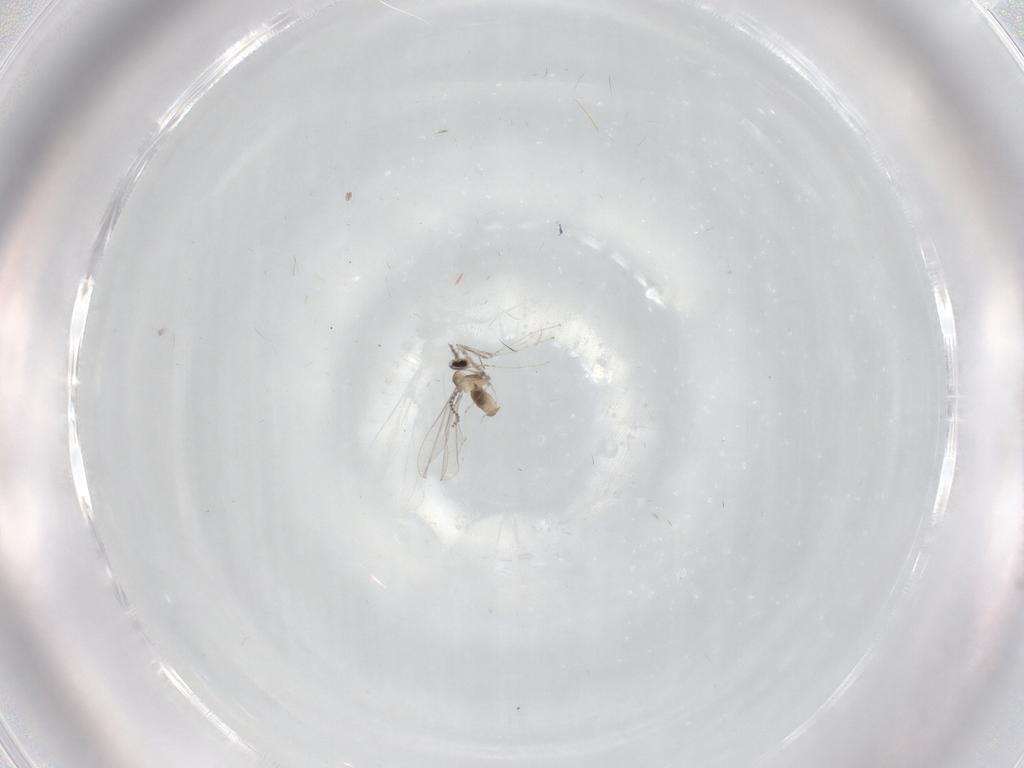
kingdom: Animalia
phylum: Arthropoda
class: Insecta
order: Diptera
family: Cecidomyiidae
